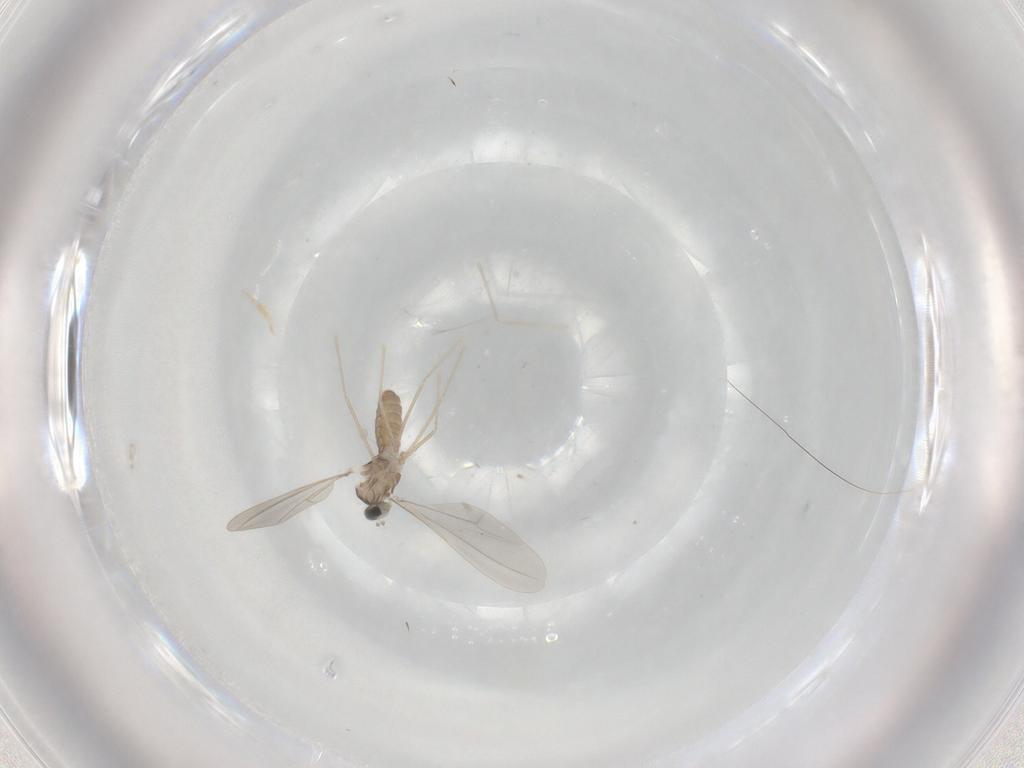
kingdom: Animalia
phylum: Arthropoda
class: Insecta
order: Diptera
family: Cecidomyiidae
